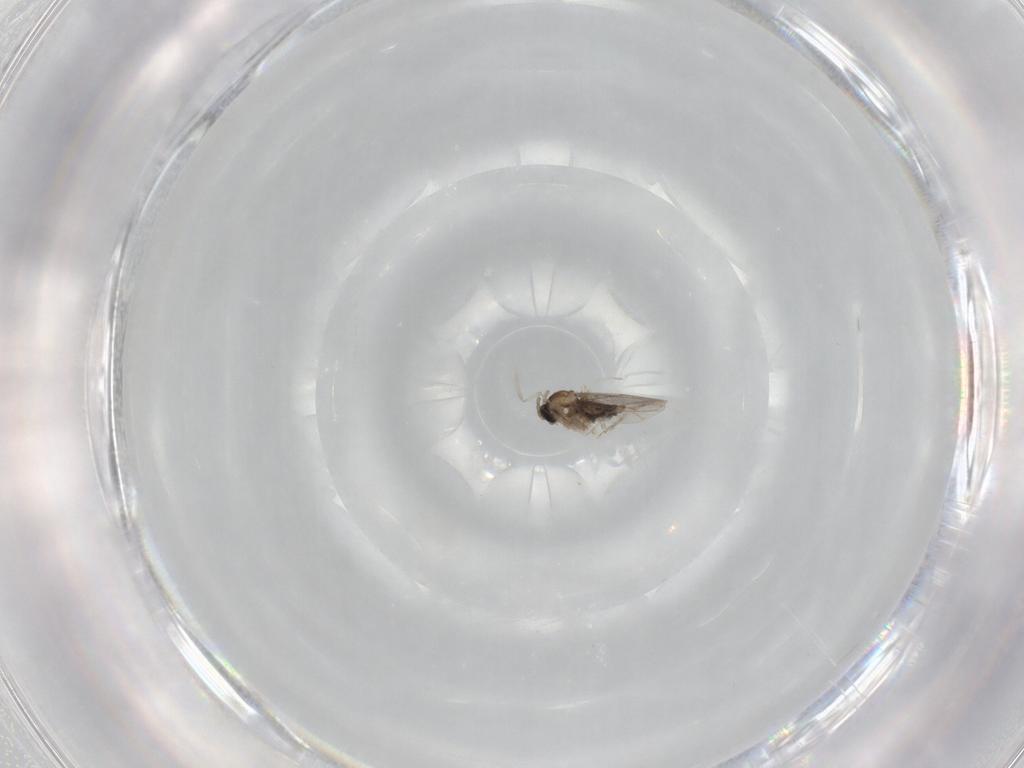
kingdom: Animalia
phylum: Arthropoda
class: Insecta
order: Diptera
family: Cecidomyiidae
